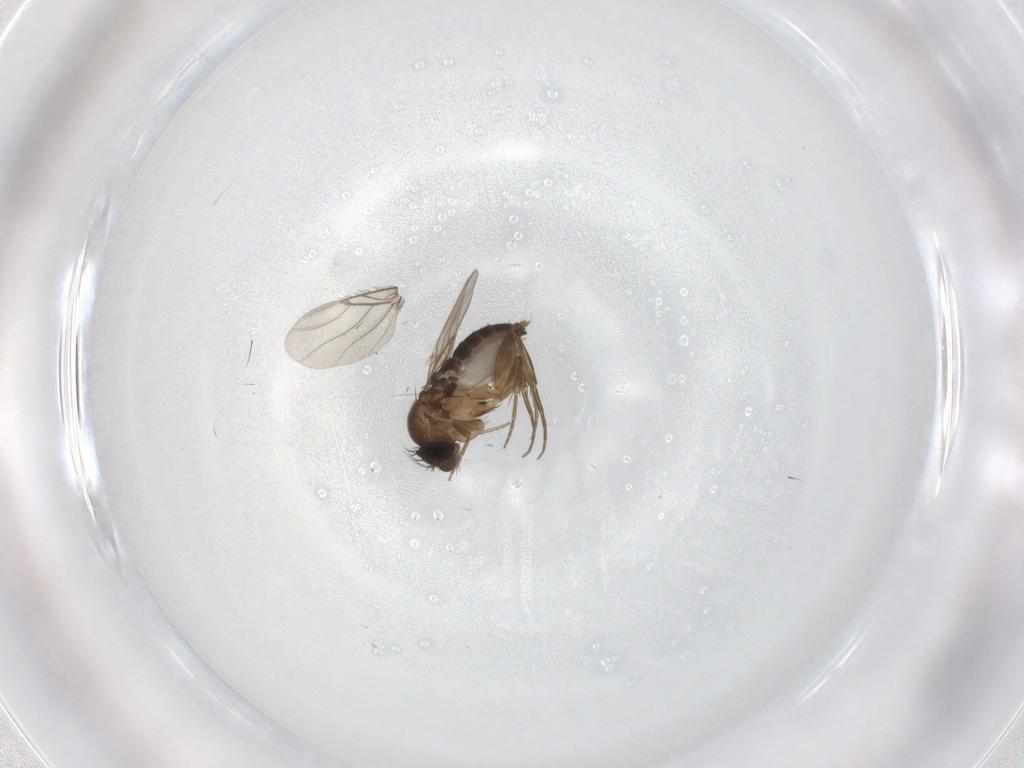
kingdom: Animalia
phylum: Arthropoda
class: Insecta
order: Diptera
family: Phoridae
